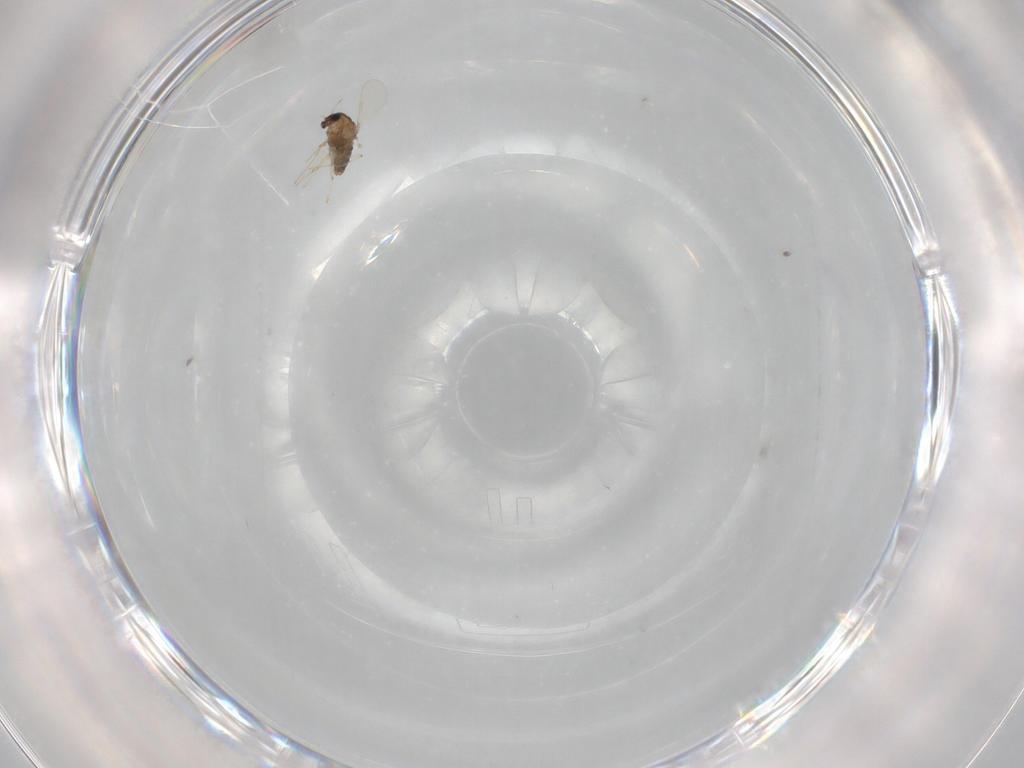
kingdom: Animalia
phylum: Arthropoda
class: Insecta
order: Diptera
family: Chironomidae
